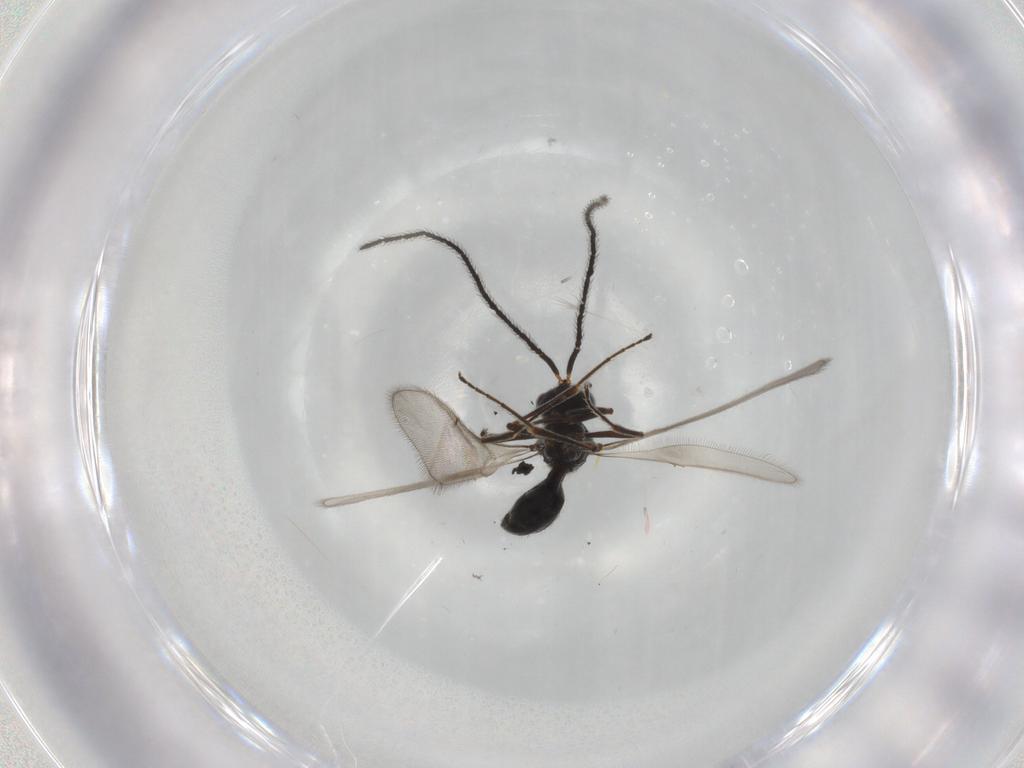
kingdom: Animalia
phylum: Arthropoda
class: Insecta
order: Hymenoptera
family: Scelionidae
